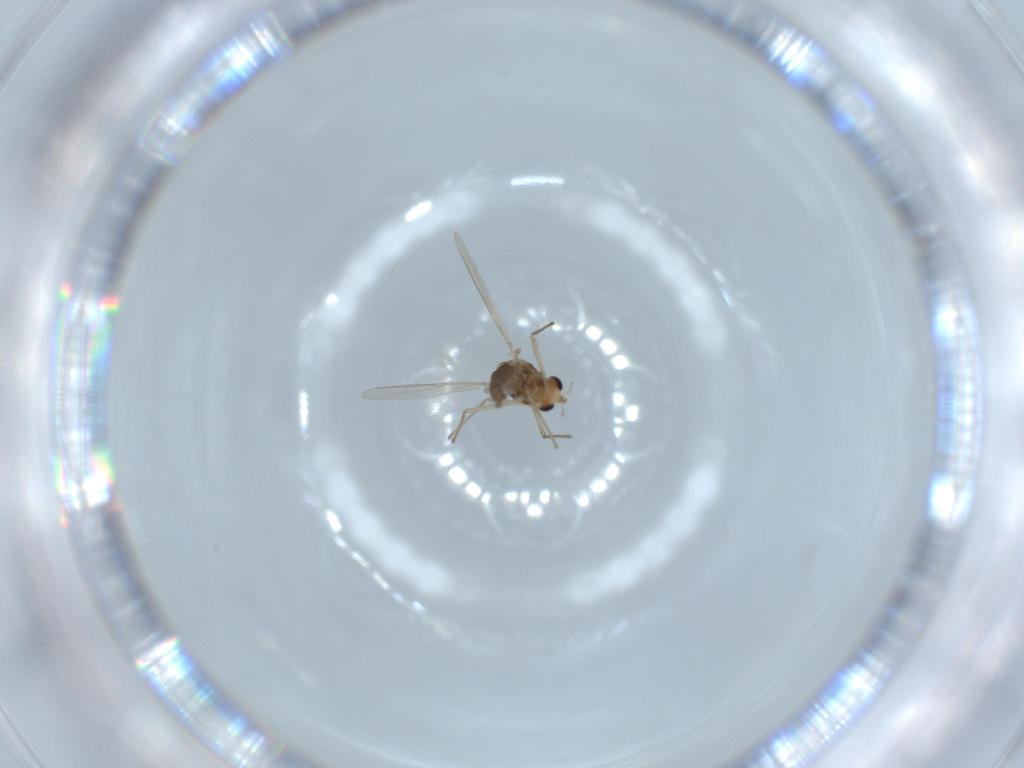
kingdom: Animalia
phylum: Arthropoda
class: Insecta
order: Diptera
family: Chironomidae
